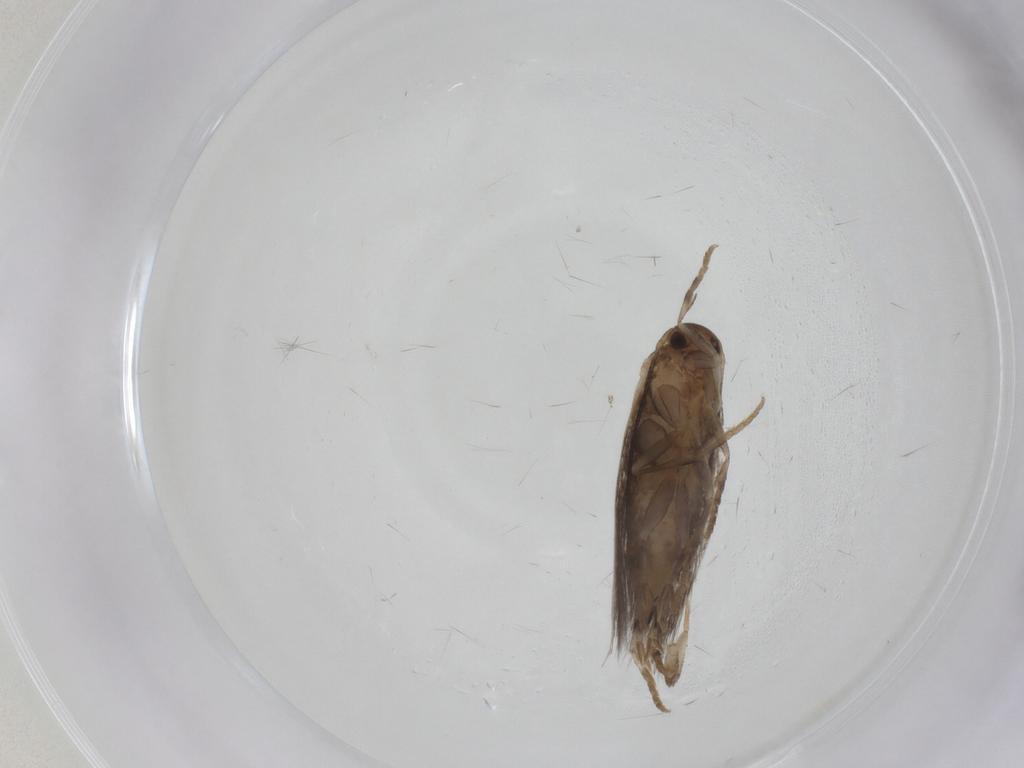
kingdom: Animalia
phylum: Arthropoda
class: Insecta
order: Lepidoptera
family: Elachistidae
